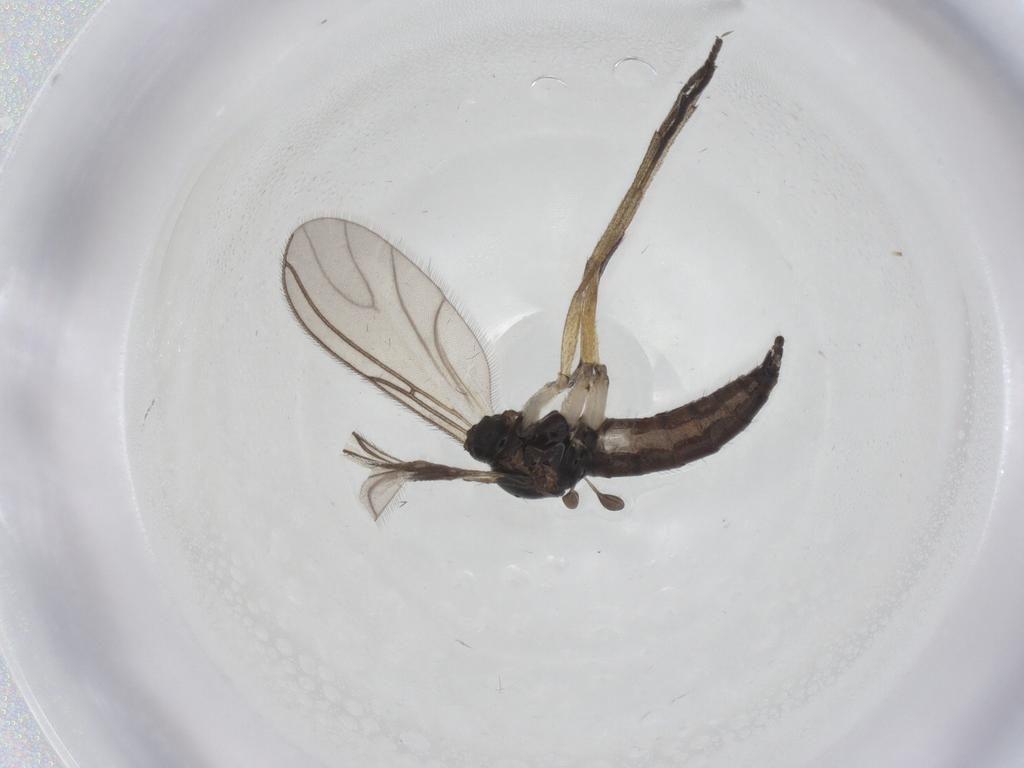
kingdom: Animalia
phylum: Arthropoda
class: Insecta
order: Diptera
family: Sciaridae
